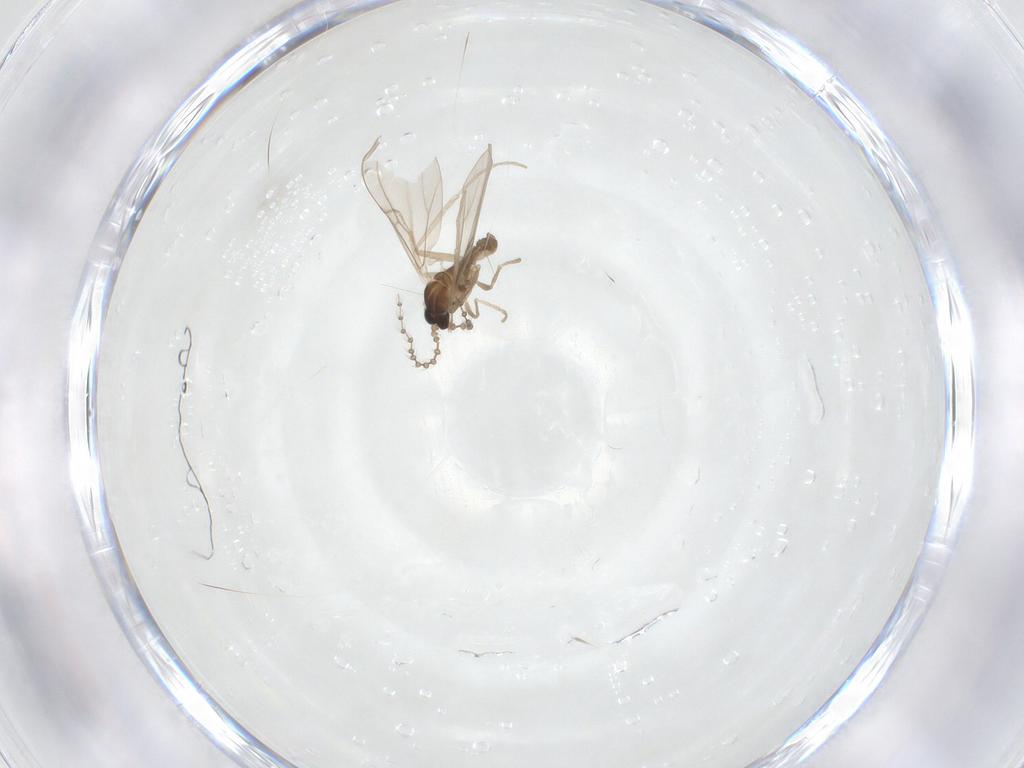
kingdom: Animalia
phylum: Arthropoda
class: Insecta
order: Diptera
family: Cecidomyiidae
